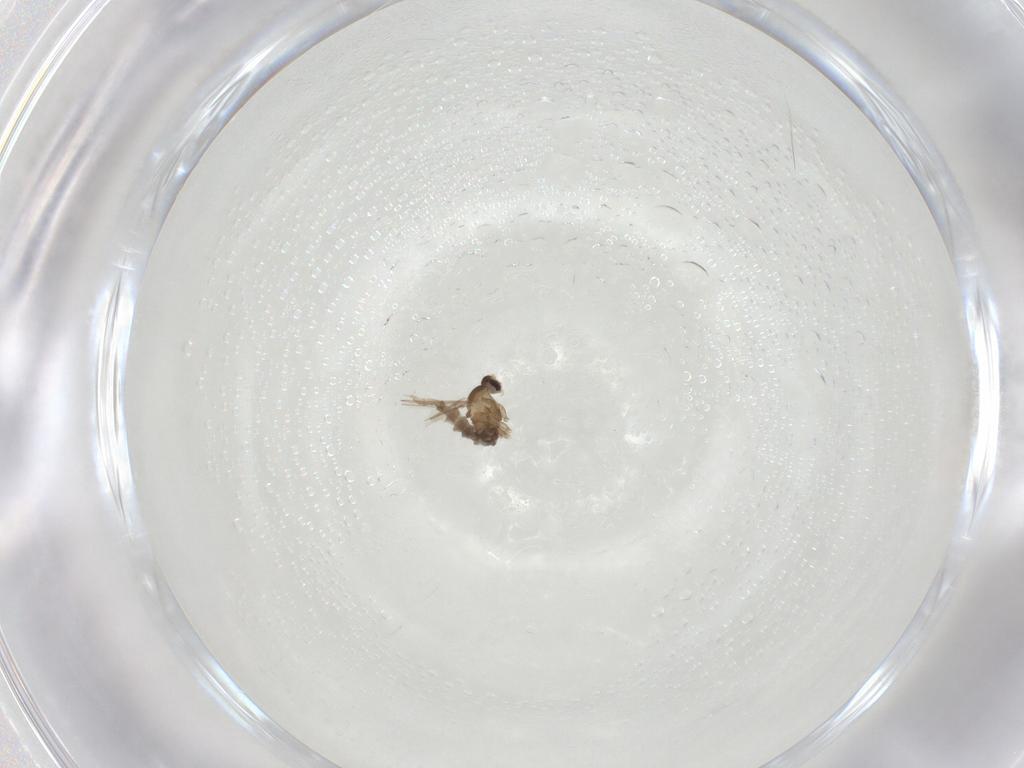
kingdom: Animalia
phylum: Arthropoda
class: Insecta
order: Diptera
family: Cecidomyiidae
